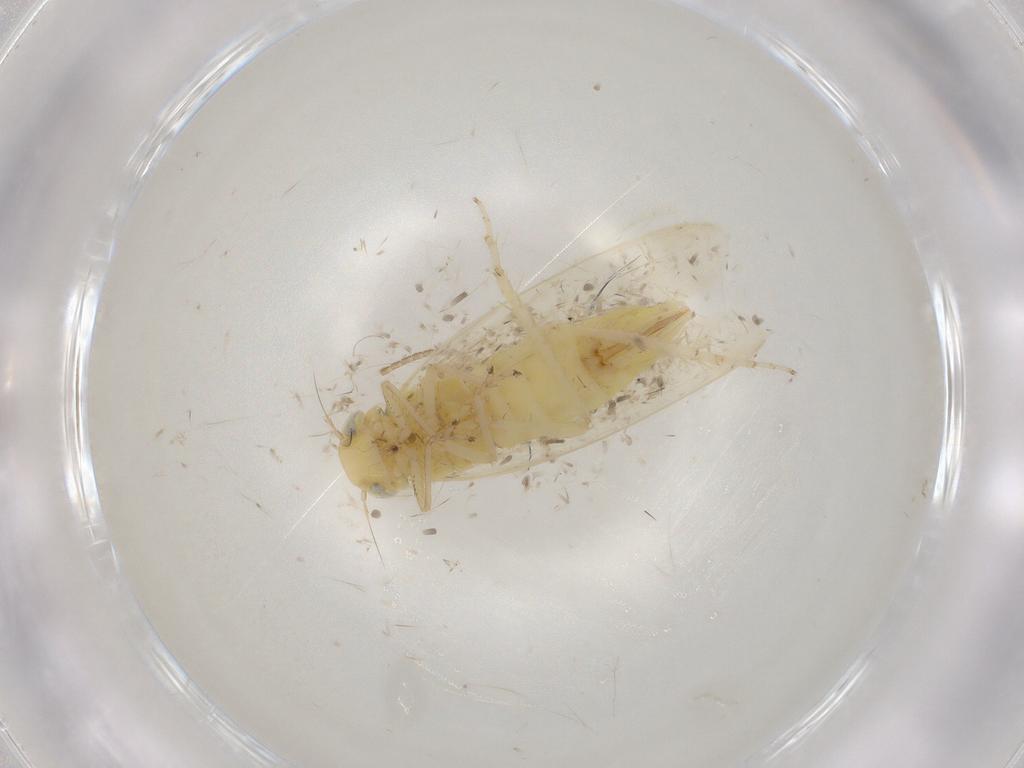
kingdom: Animalia
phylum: Arthropoda
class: Insecta
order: Hemiptera
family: Cicadellidae
